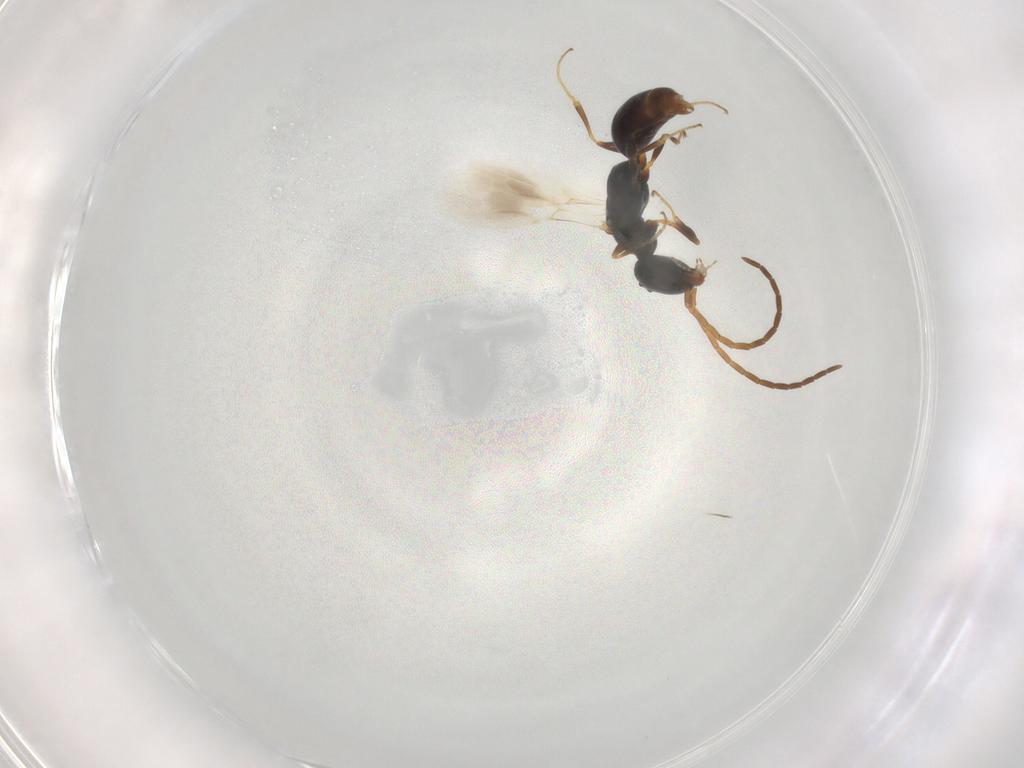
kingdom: Animalia
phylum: Arthropoda
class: Insecta
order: Hymenoptera
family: Bethylidae
